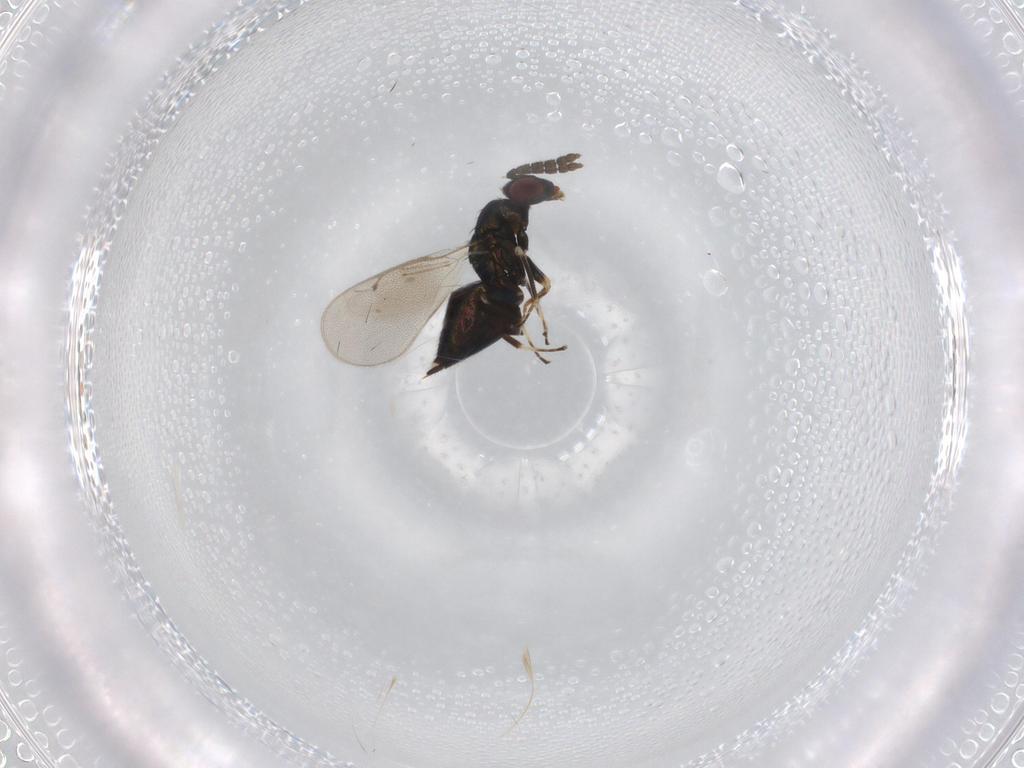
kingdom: Animalia
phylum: Arthropoda
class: Insecta
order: Hymenoptera
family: Eulophidae
